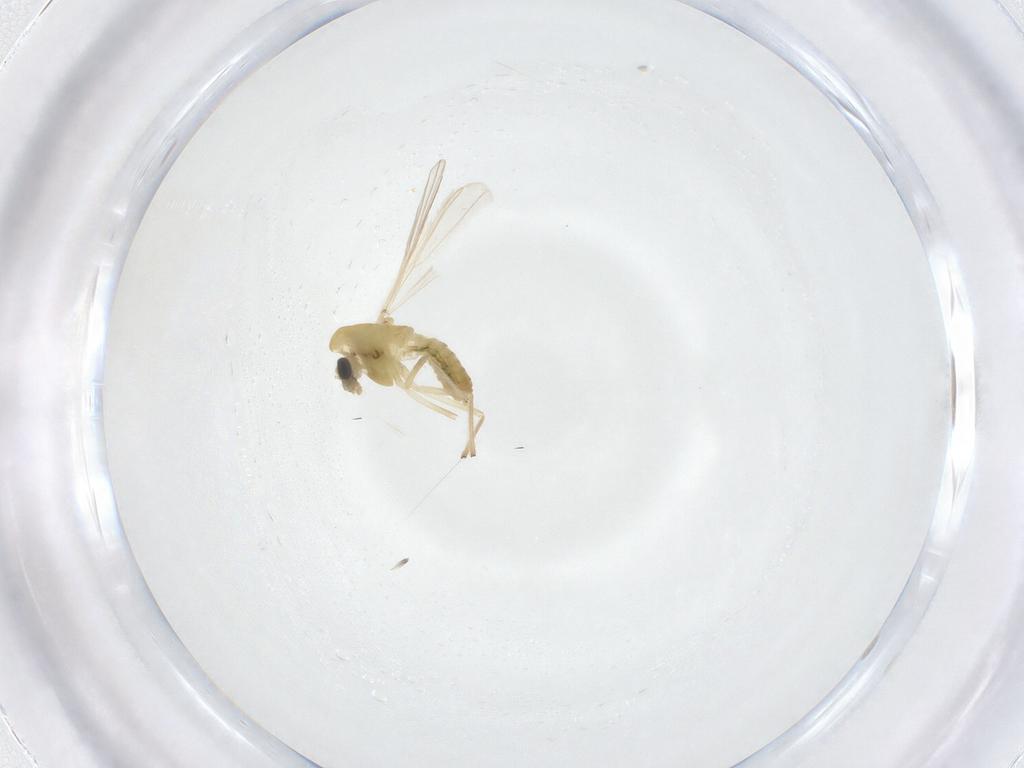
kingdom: Animalia
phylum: Arthropoda
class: Insecta
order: Diptera
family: Chironomidae
